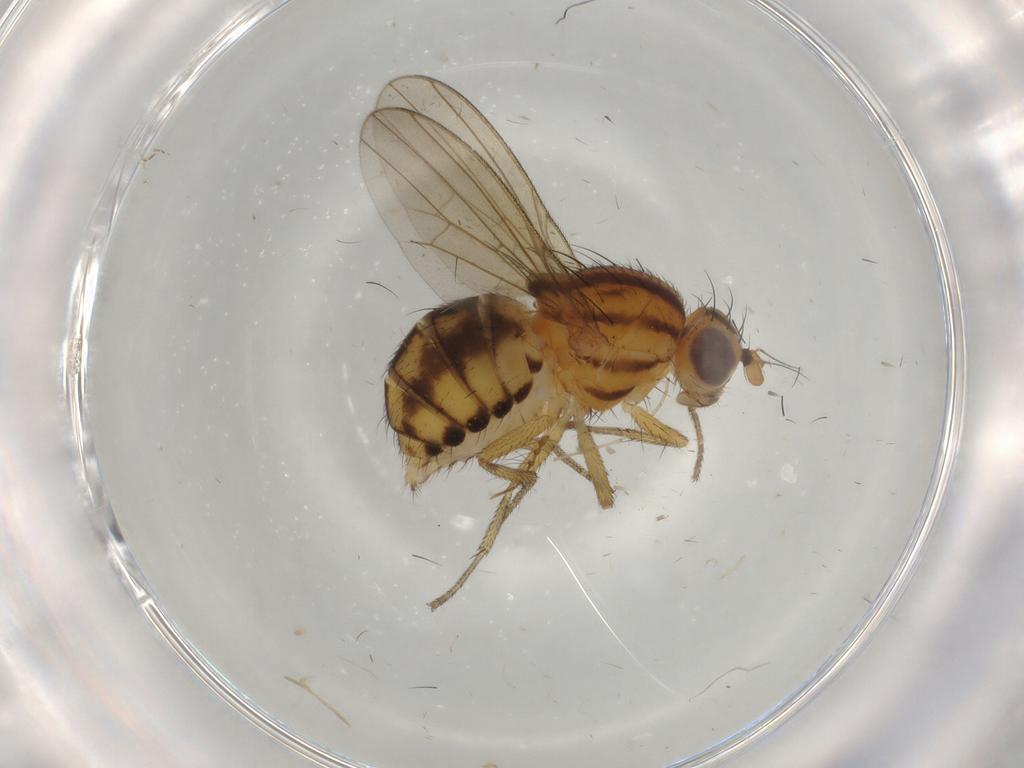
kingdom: Animalia
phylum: Arthropoda
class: Insecta
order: Diptera
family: Chironomidae
